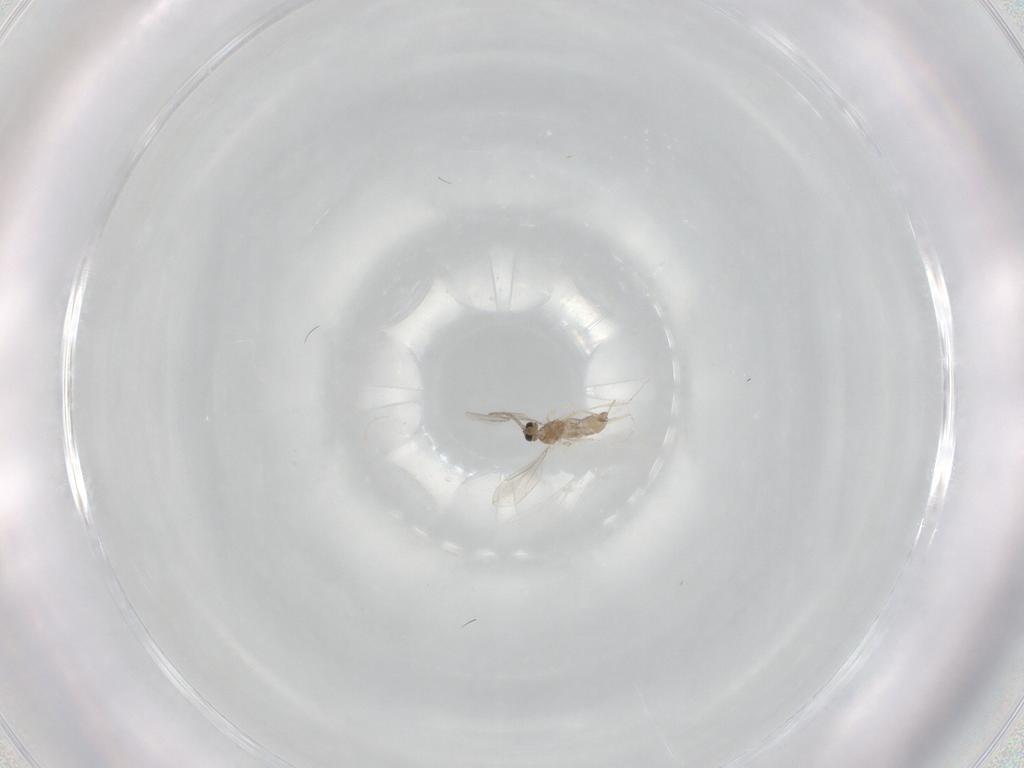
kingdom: Animalia
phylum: Arthropoda
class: Insecta
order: Diptera
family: Cecidomyiidae
